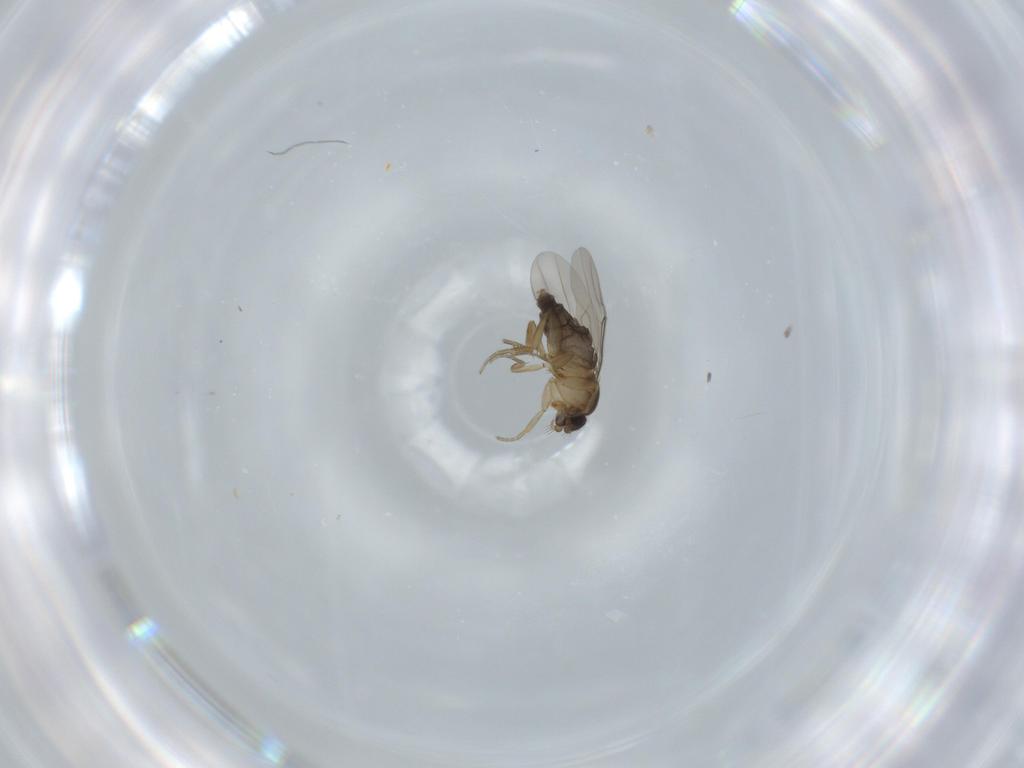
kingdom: Animalia
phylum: Arthropoda
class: Insecta
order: Diptera
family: Phoridae
